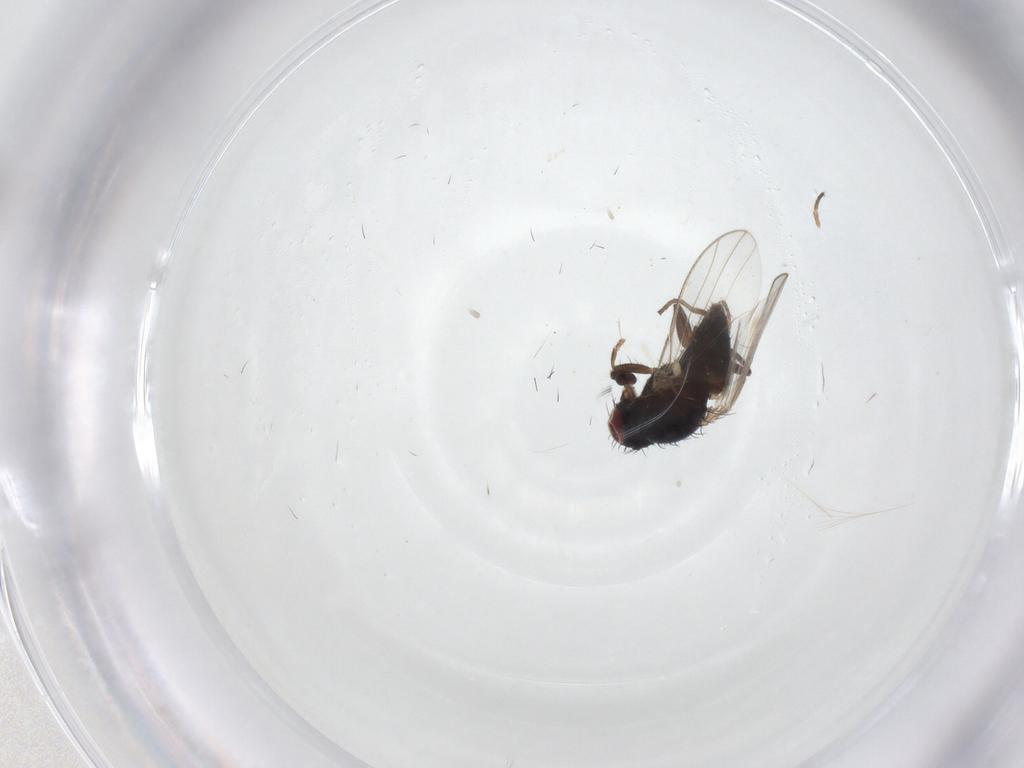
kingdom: Animalia
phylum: Arthropoda
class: Insecta
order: Diptera
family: Carnidae
